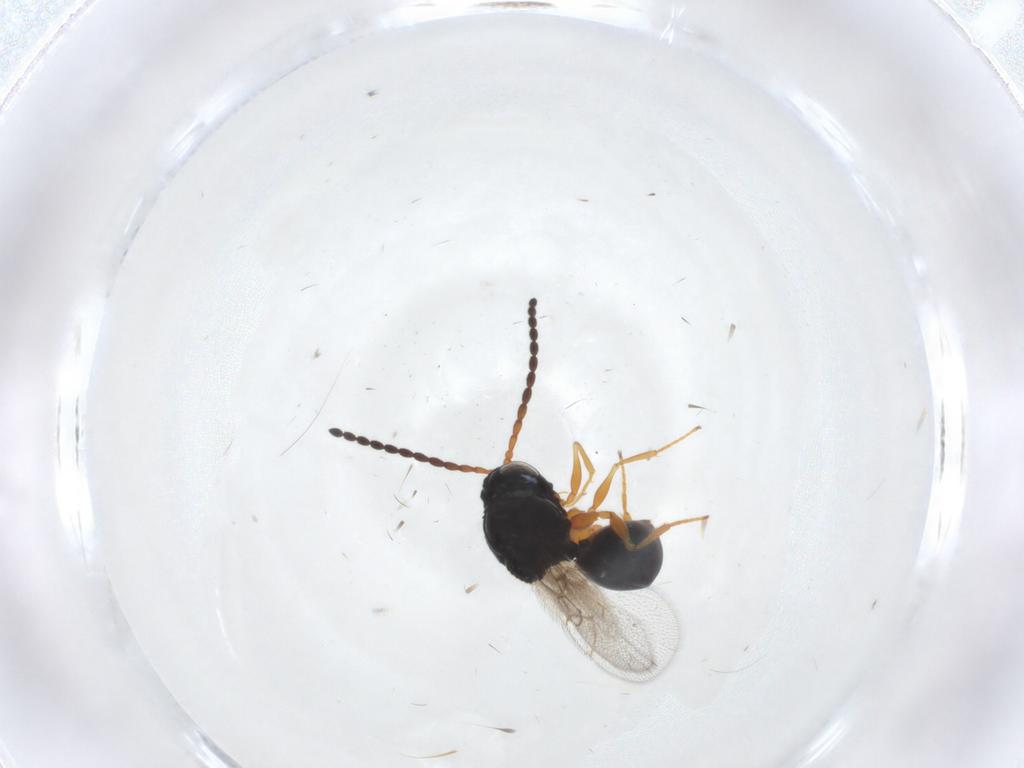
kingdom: Animalia
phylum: Arthropoda
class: Insecta
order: Hymenoptera
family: Figitidae
